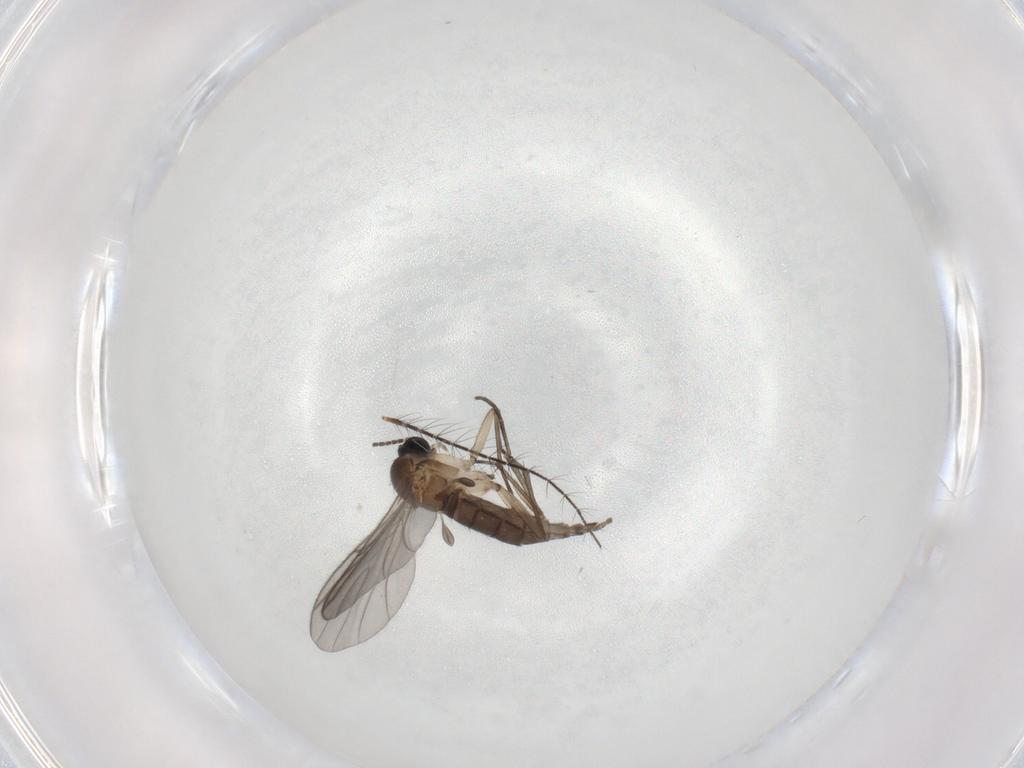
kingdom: Animalia
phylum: Arthropoda
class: Insecta
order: Diptera
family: Sciaridae
